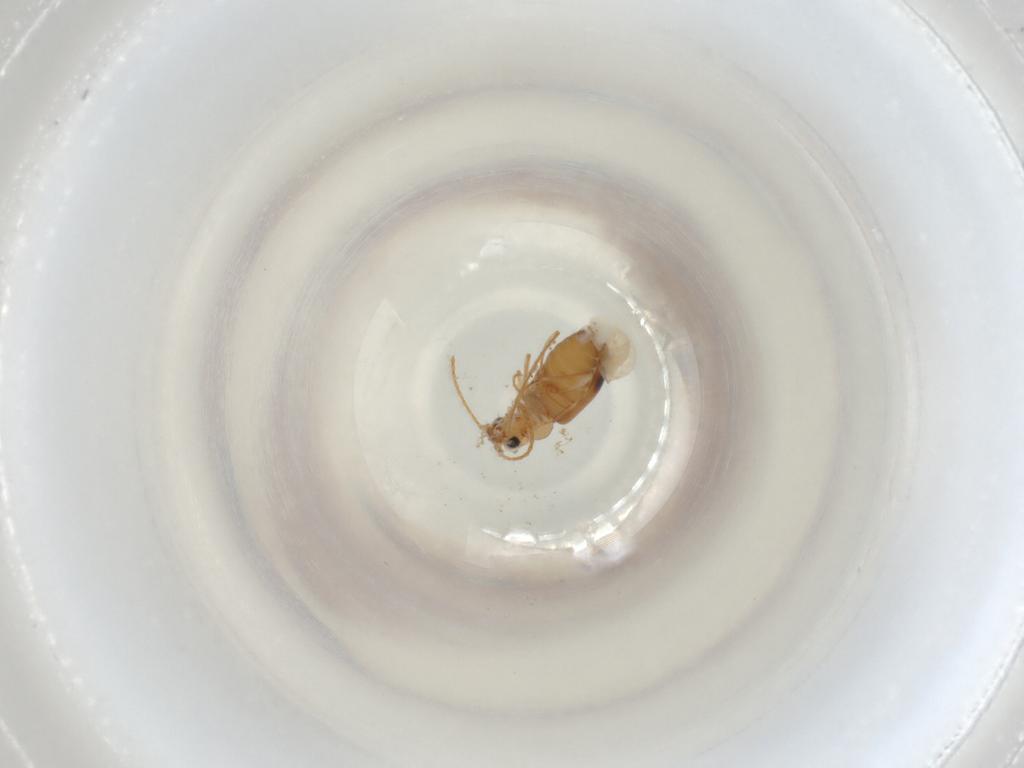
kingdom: Animalia
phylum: Arthropoda
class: Insecta
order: Coleoptera
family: Anthicidae
